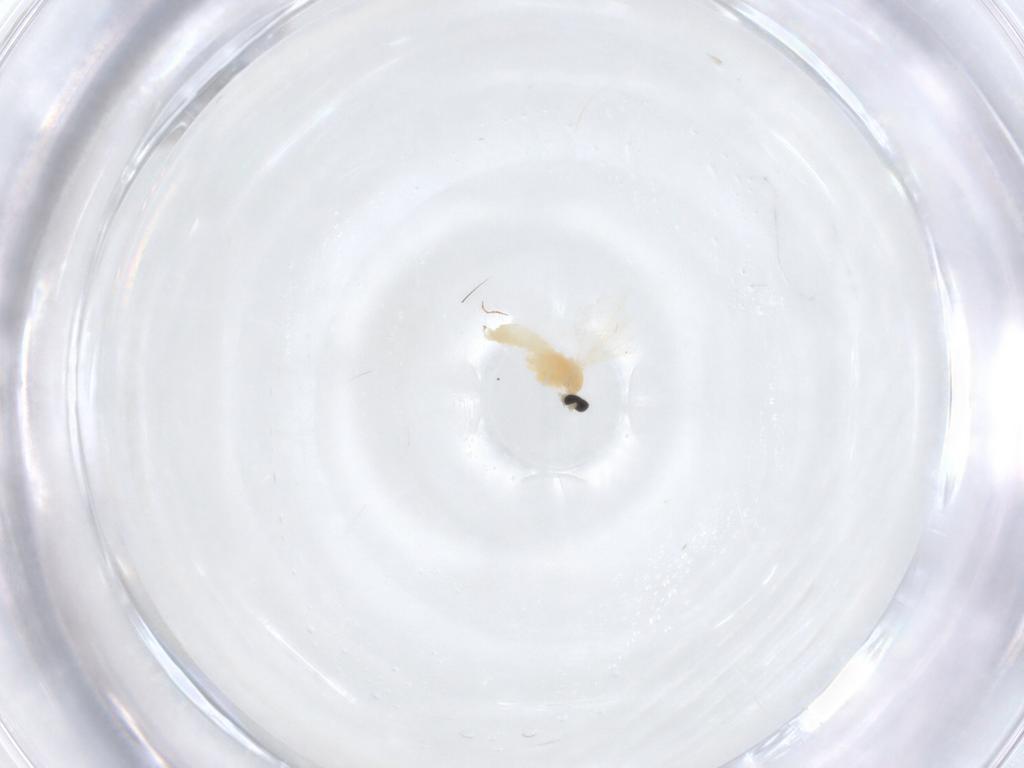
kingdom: Animalia
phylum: Arthropoda
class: Insecta
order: Diptera
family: Cecidomyiidae
